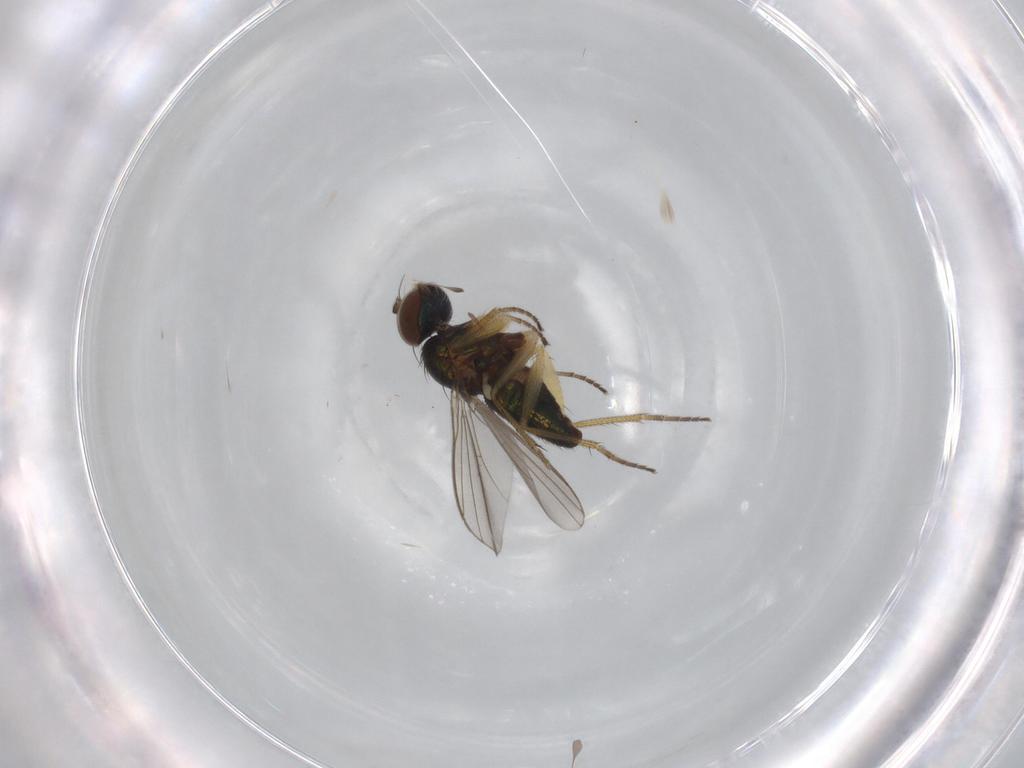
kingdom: Animalia
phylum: Arthropoda
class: Insecta
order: Diptera
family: Dolichopodidae
